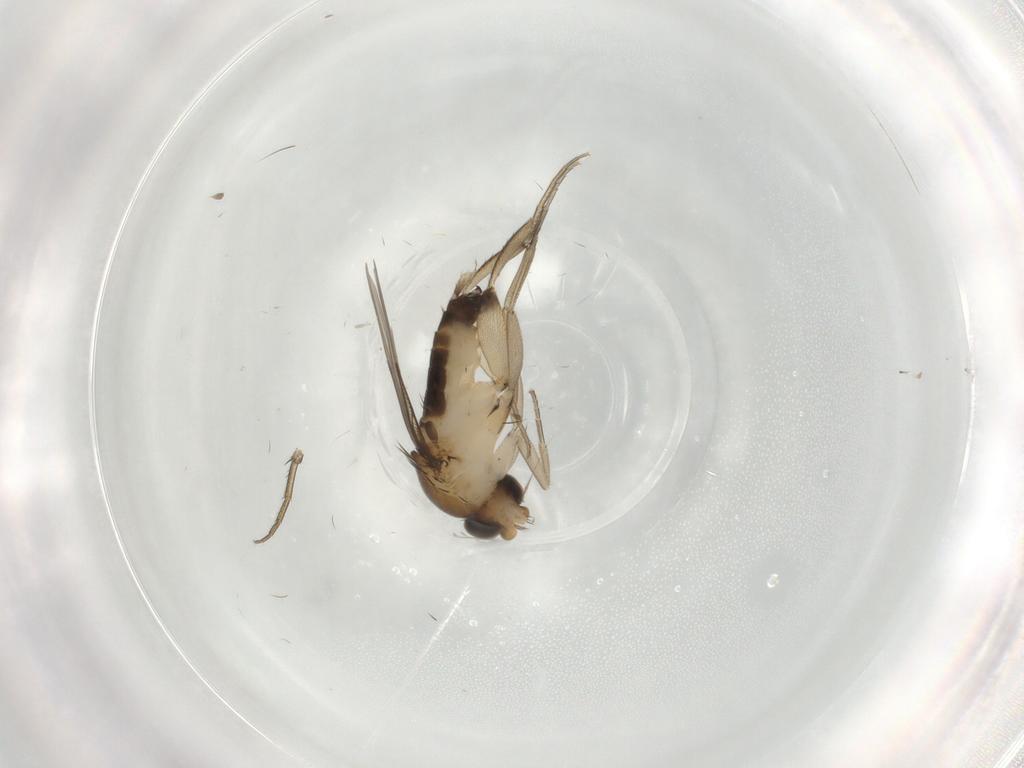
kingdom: Animalia
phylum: Arthropoda
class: Insecta
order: Diptera
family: Phoridae
